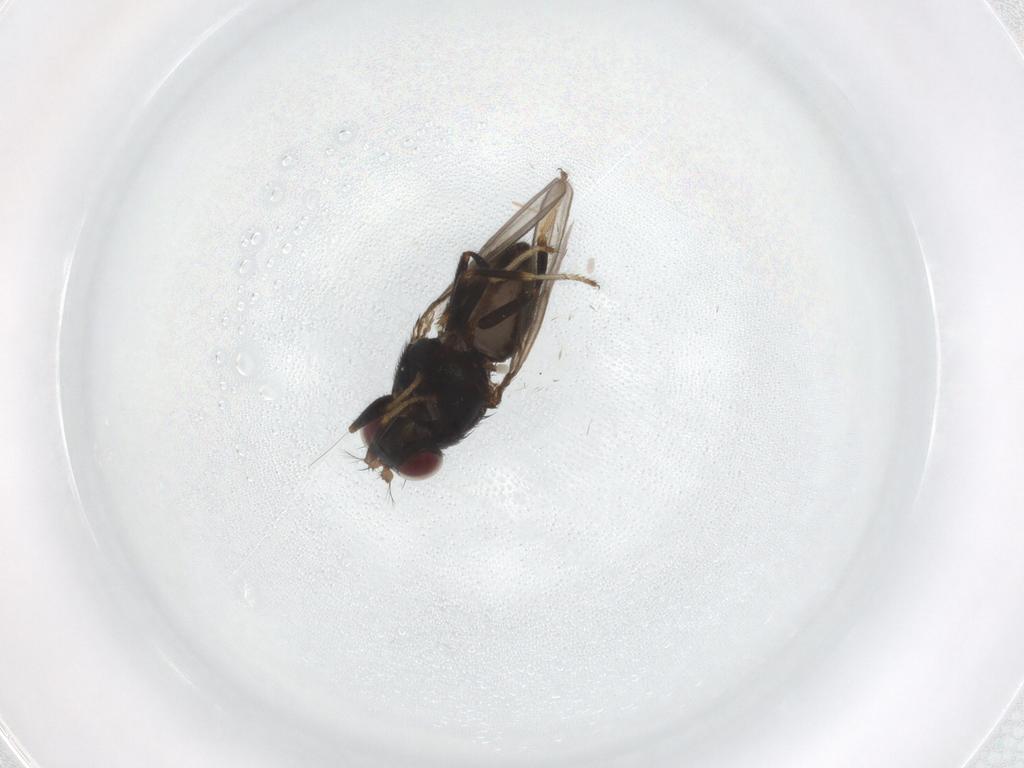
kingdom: Animalia
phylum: Arthropoda
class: Insecta
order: Diptera
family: Ephydridae
